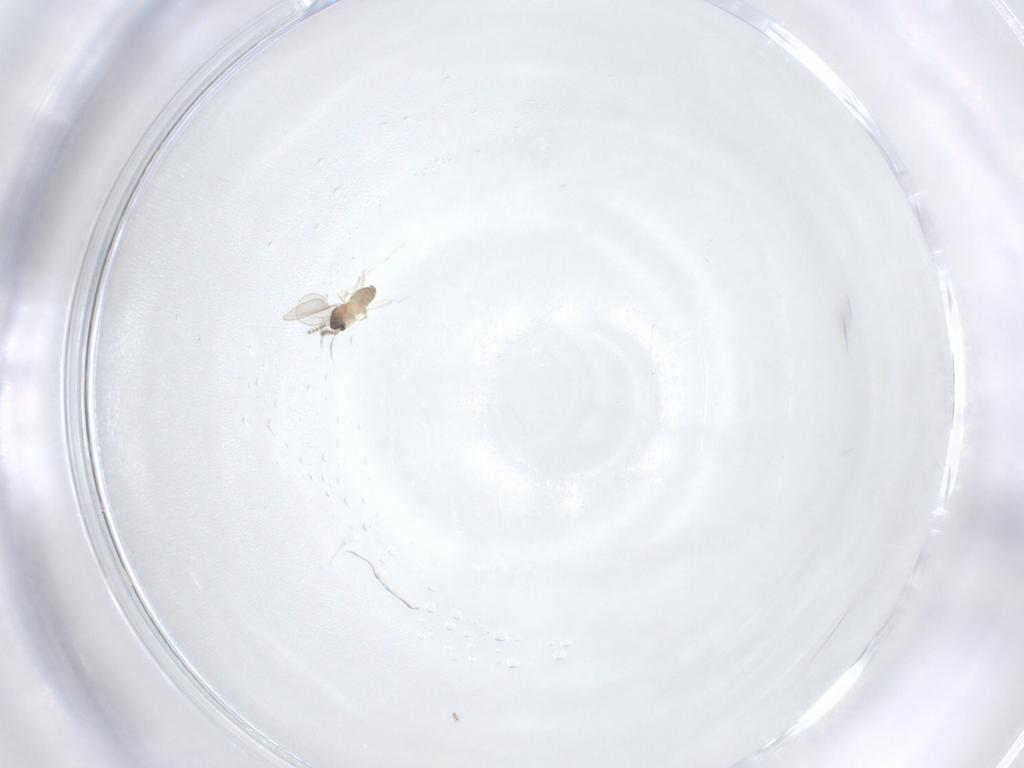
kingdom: Animalia
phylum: Arthropoda
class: Insecta
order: Diptera
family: Cecidomyiidae
